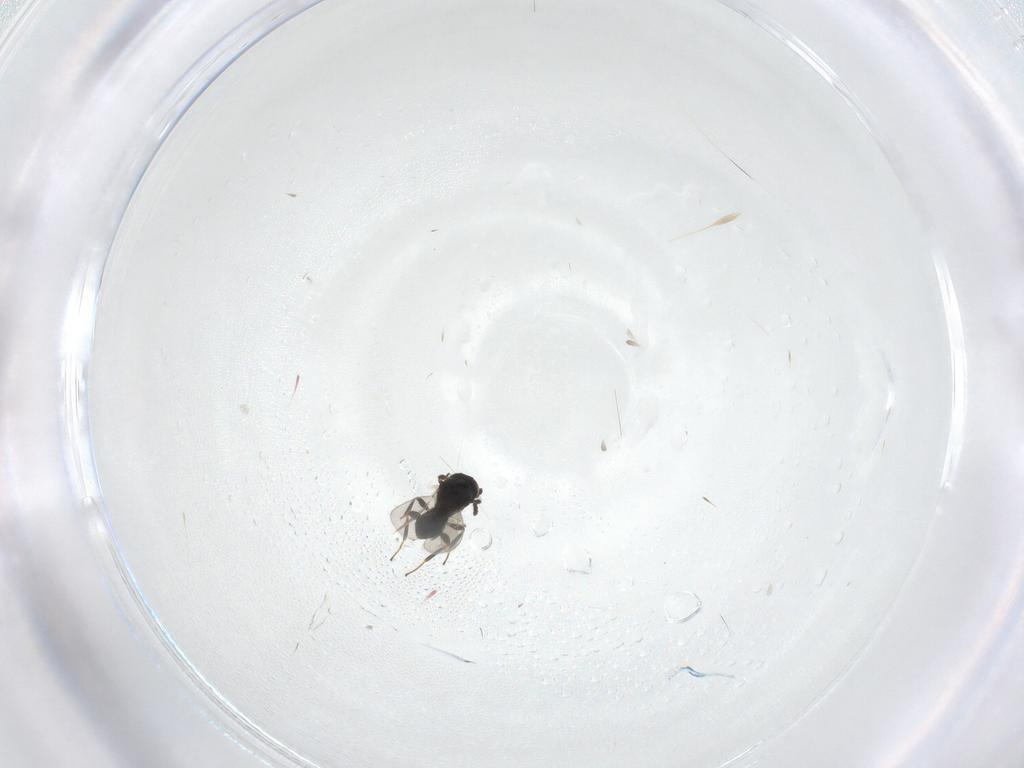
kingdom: Animalia
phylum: Arthropoda
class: Insecta
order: Hymenoptera
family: Platygastridae
